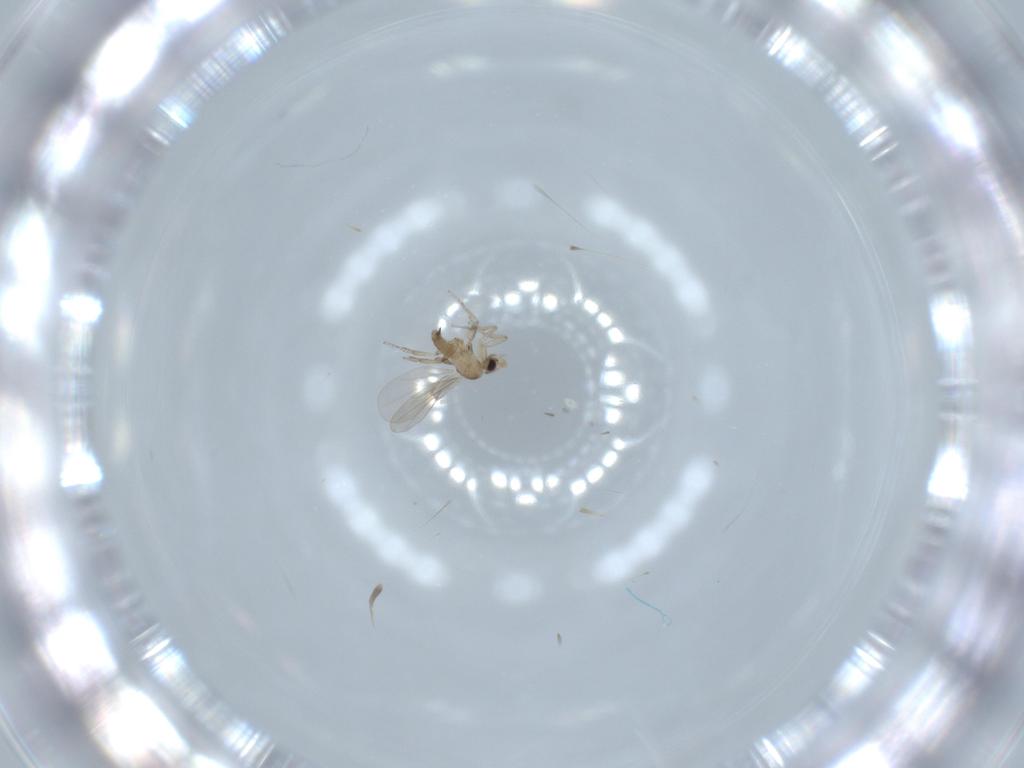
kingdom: Animalia
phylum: Arthropoda
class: Insecta
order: Diptera
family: Phoridae
